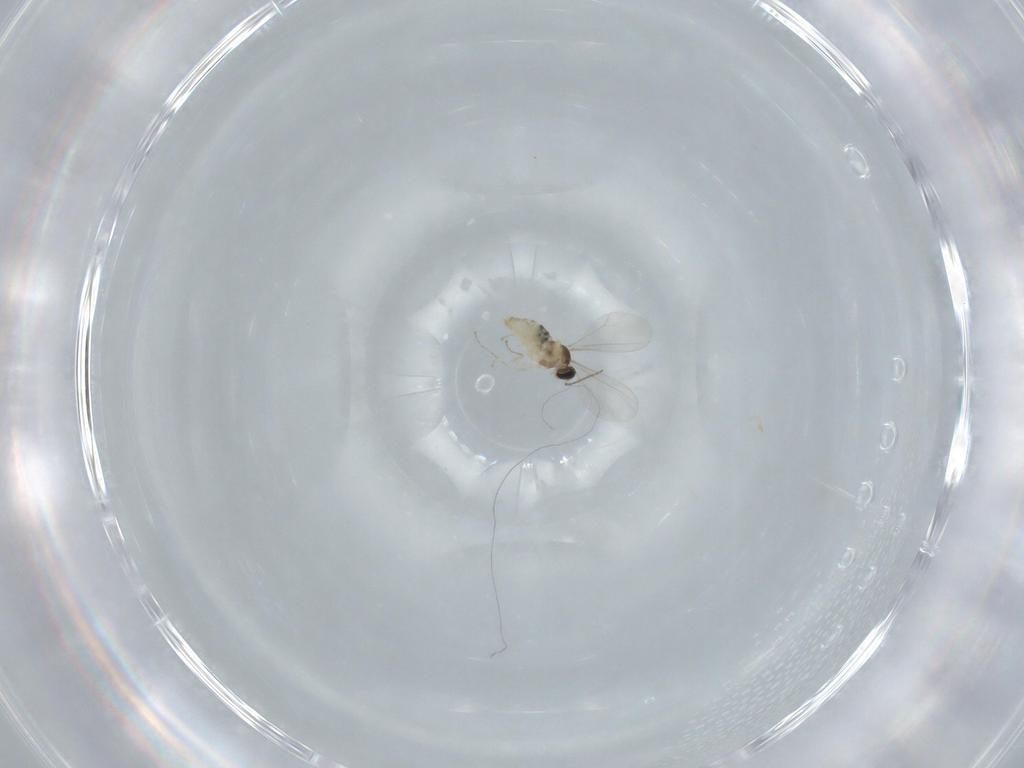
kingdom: Animalia
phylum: Arthropoda
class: Insecta
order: Diptera
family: Cecidomyiidae
